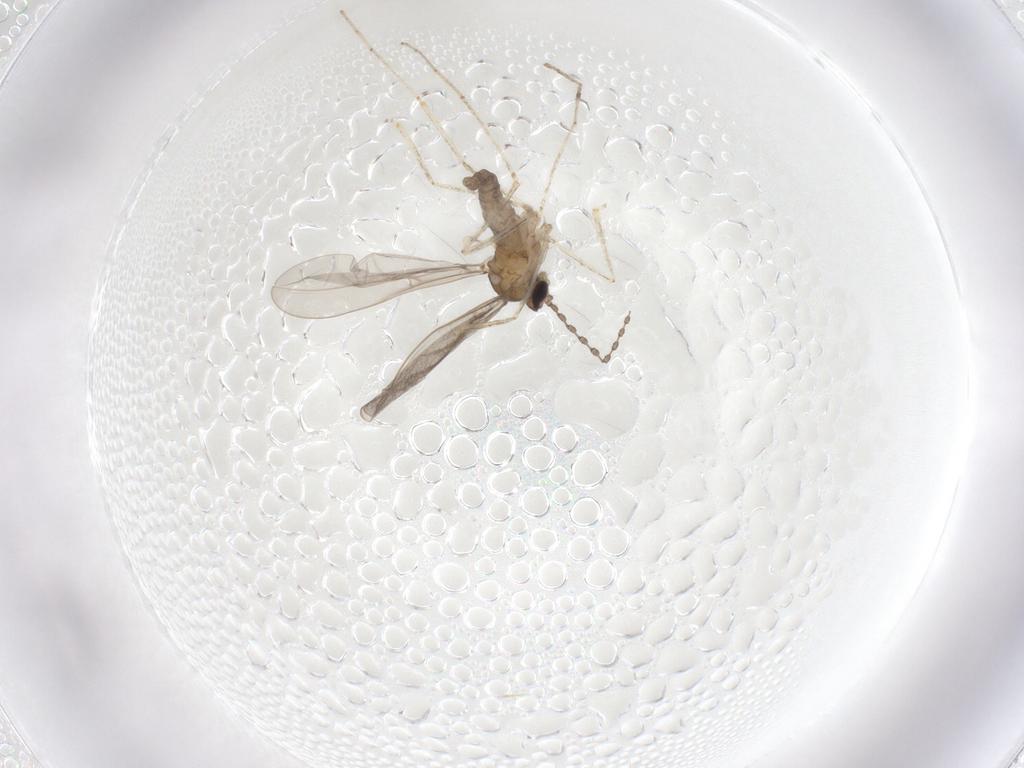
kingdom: Animalia
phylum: Arthropoda
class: Insecta
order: Diptera
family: Cecidomyiidae
